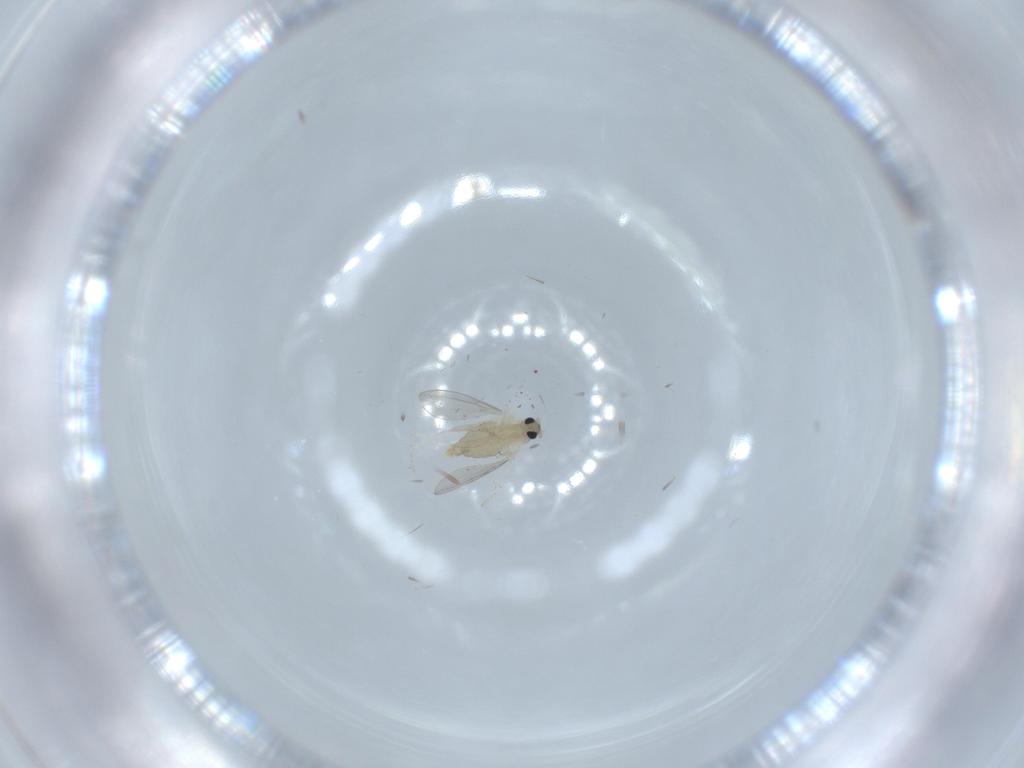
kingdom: Animalia
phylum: Arthropoda
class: Insecta
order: Diptera
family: Cecidomyiidae
